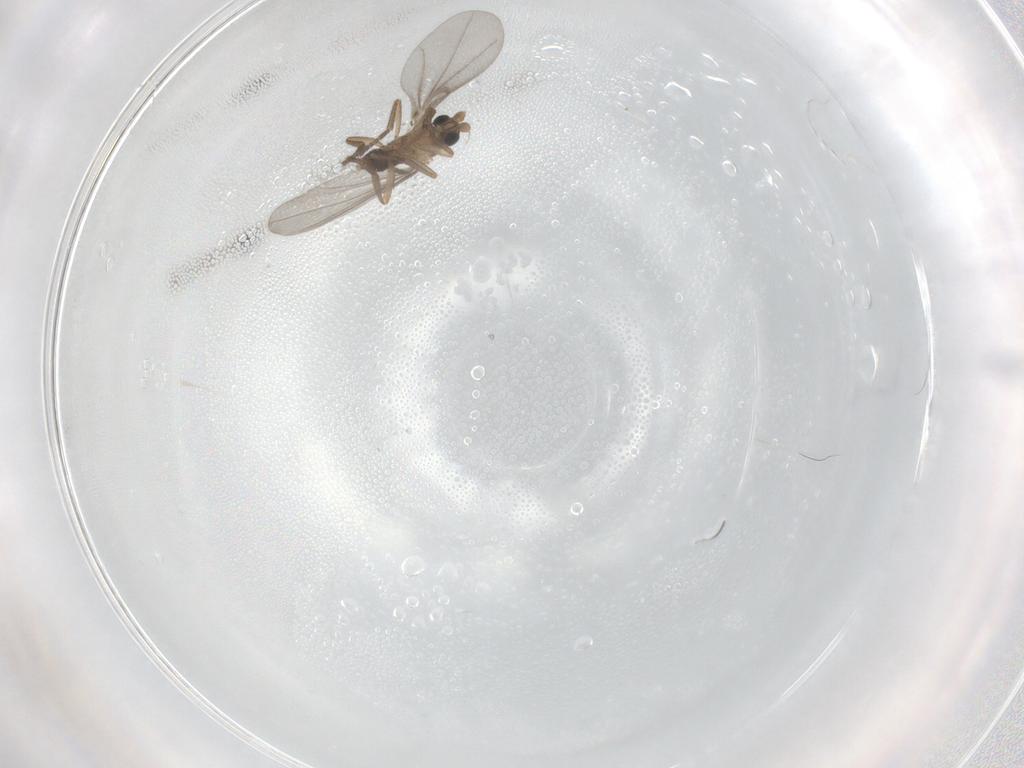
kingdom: Animalia
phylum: Arthropoda
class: Insecta
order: Diptera
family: Phoridae
